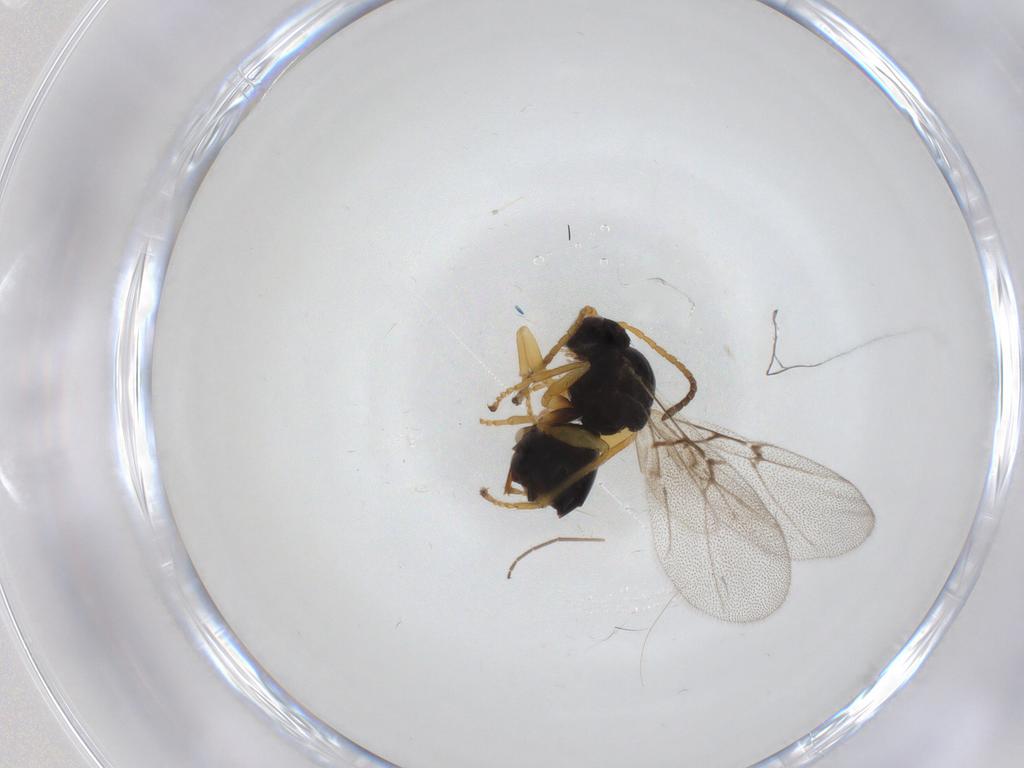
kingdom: Animalia
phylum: Arthropoda
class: Insecta
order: Hymenoptera
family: Cynipidae
